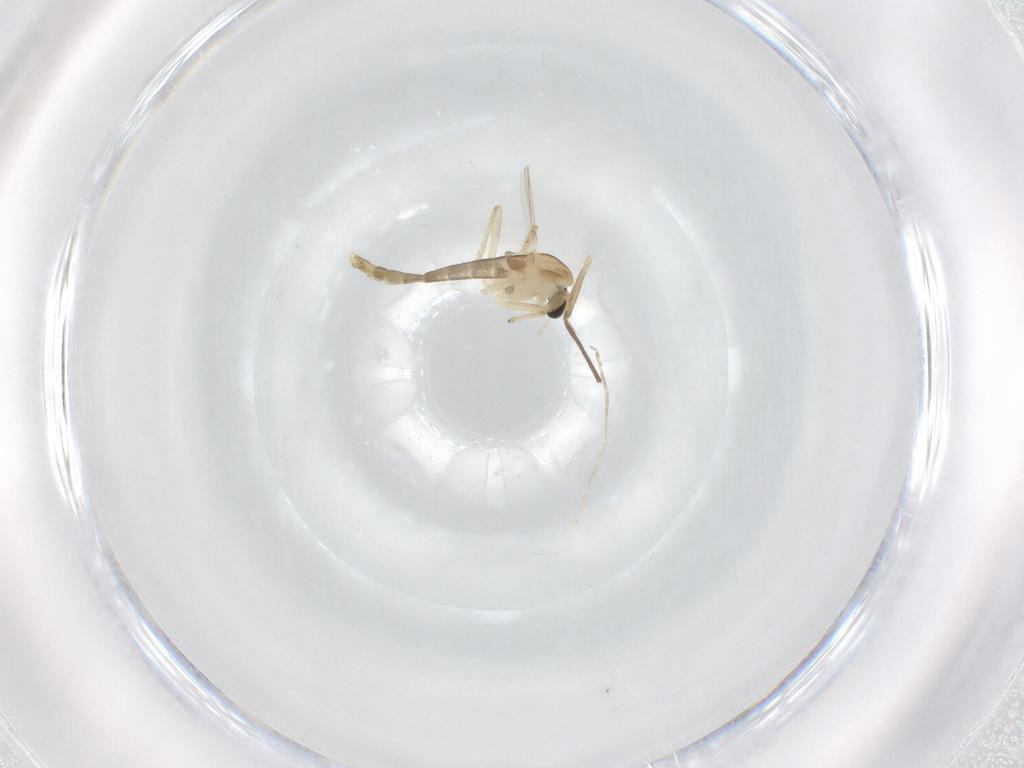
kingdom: Animalia
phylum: Arthropoda
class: Insecta
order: Diptera
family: Chironomidae
